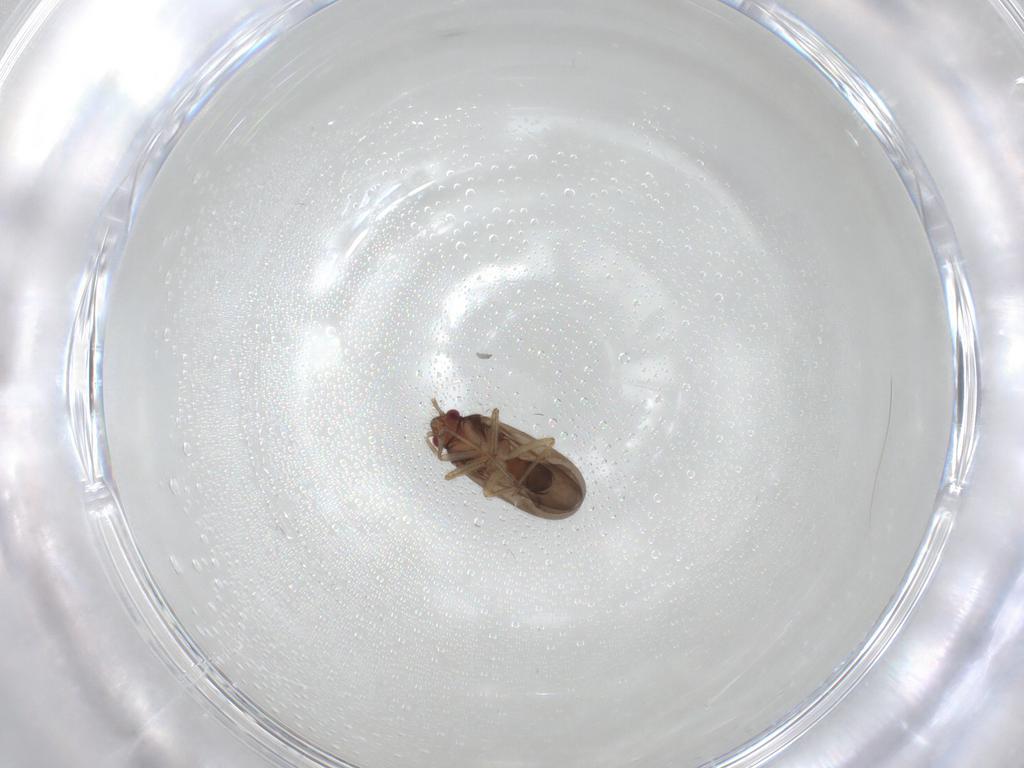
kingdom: Animalia
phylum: Arthropoda
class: Insecta
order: Hemiptera
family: Ceratocombidae
